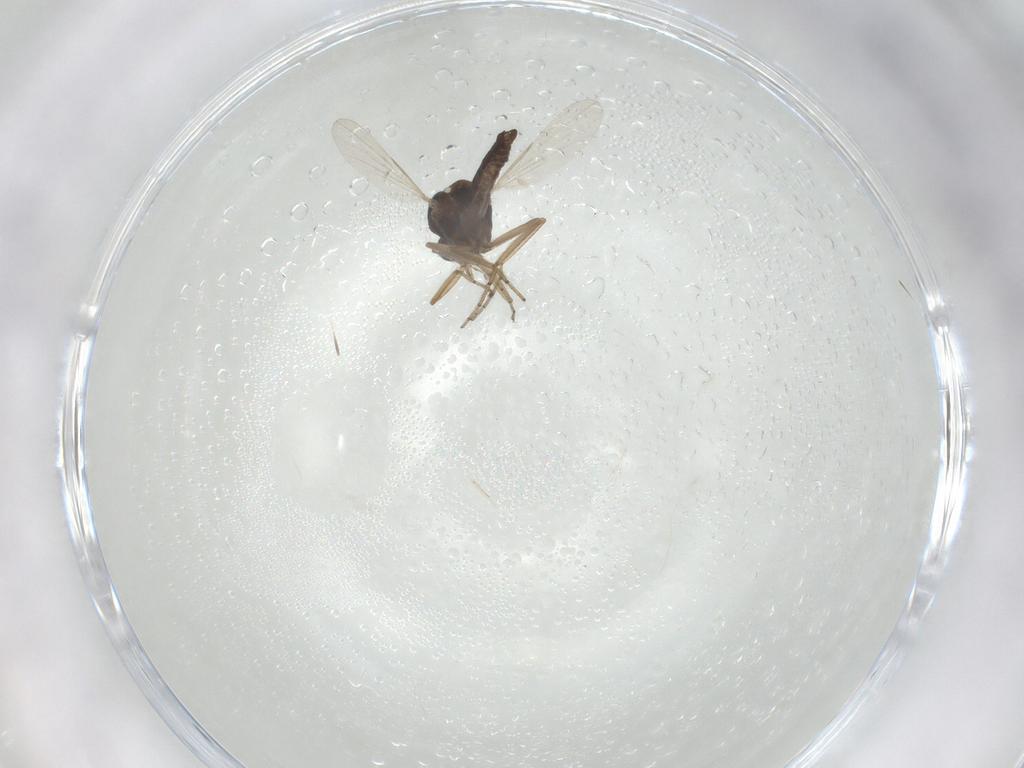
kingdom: Animalia
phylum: Arthropoda
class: Insecta
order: Diptera
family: Ceratopogonidae
